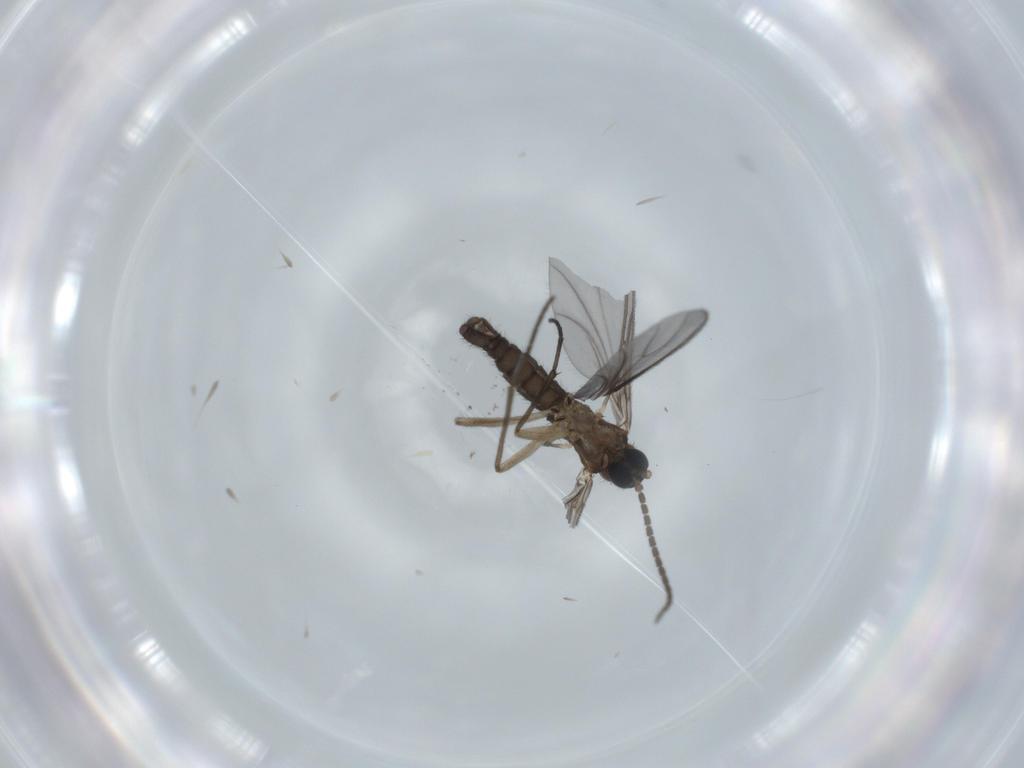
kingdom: Animalia
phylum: Arthropoda
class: Insecta
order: Diptera
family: Sciaridae
